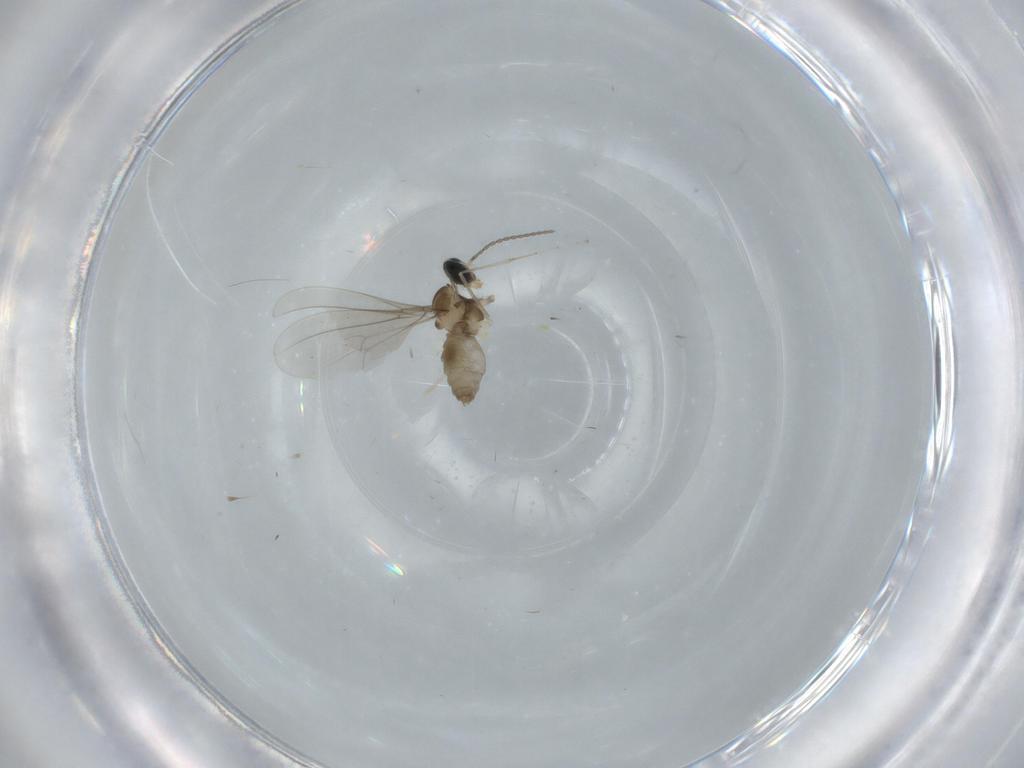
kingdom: Animalia
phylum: Arthropoda
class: Insecta
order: Diptera
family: Cecidomyiidae
